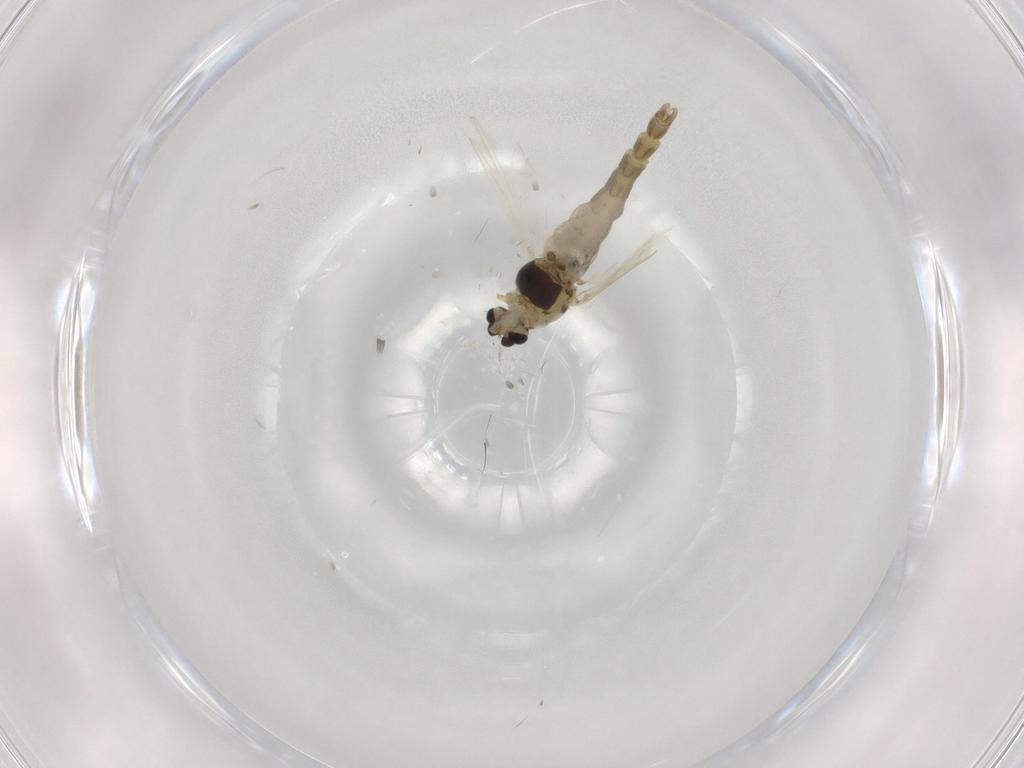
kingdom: Animalia
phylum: Arthropoda
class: Insecta
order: Diptera
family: Chironomidae
